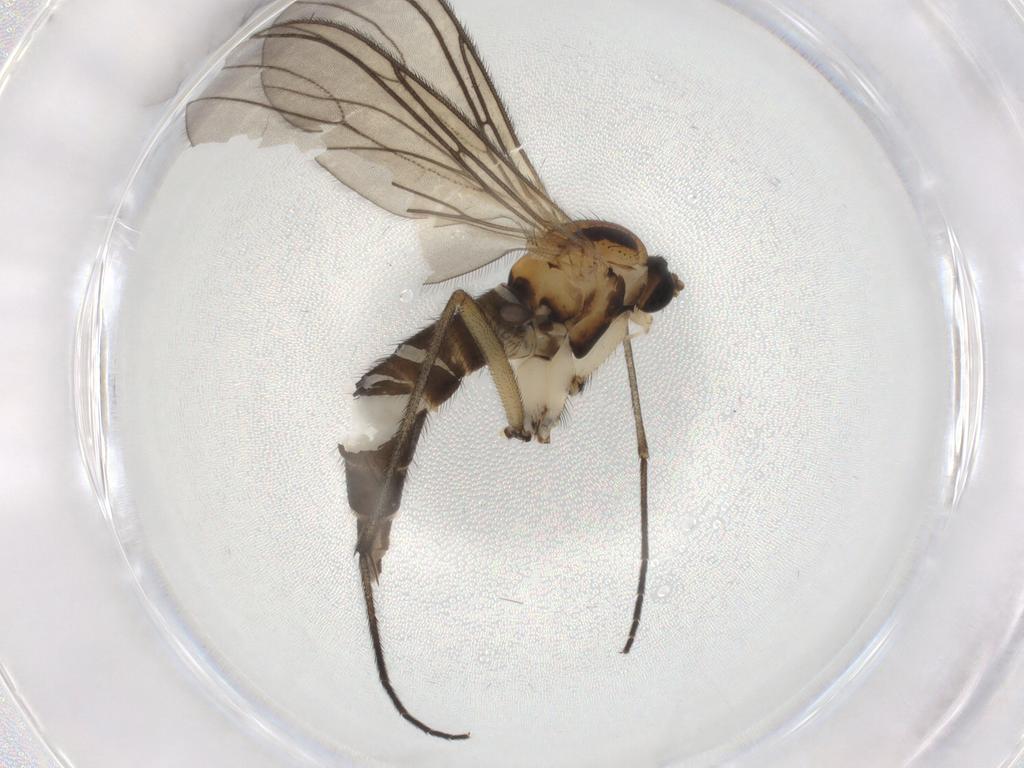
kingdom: Animalia
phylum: Arthropoda
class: Insecta
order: Diptera
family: Sciaridae
